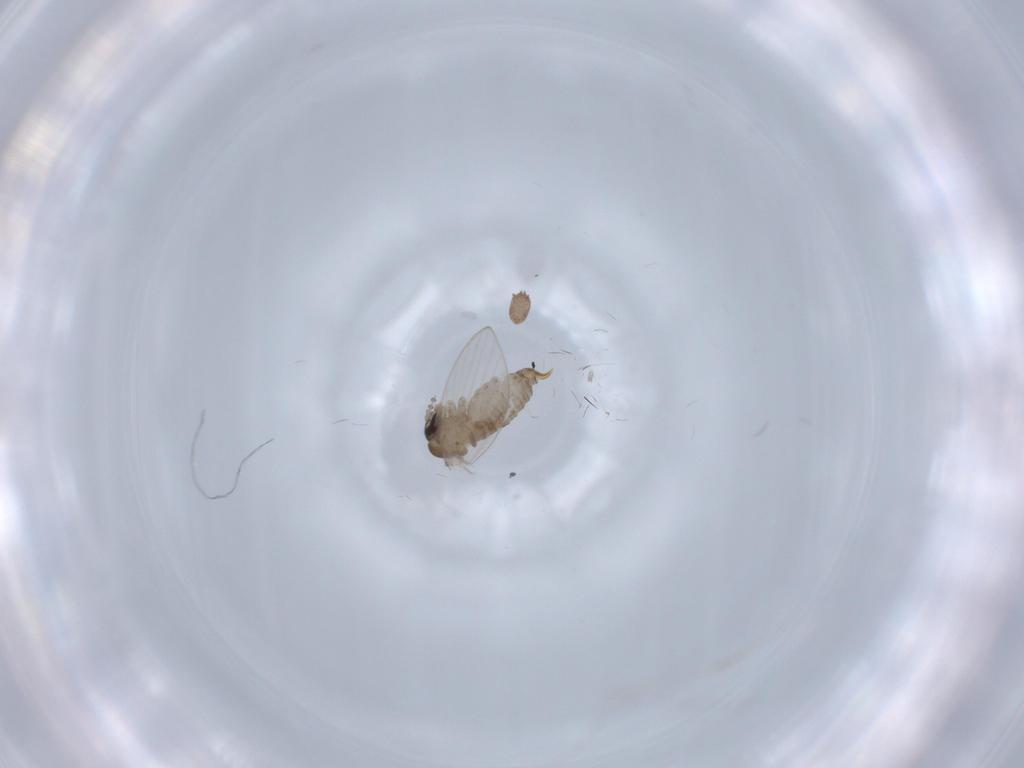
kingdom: Animalia
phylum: Arthropoda
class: Insecta
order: Diptera
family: Psychodidae
